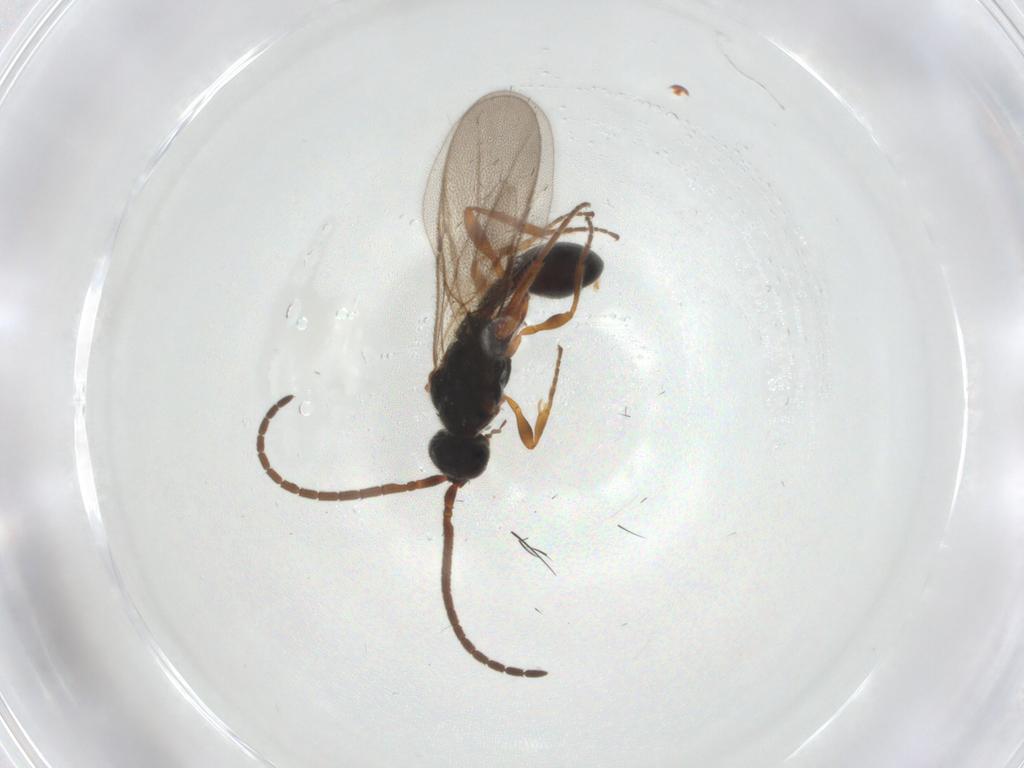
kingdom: Animalia
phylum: Arthropoda
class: Insecta
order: Hymenoptera
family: Diapriidae
